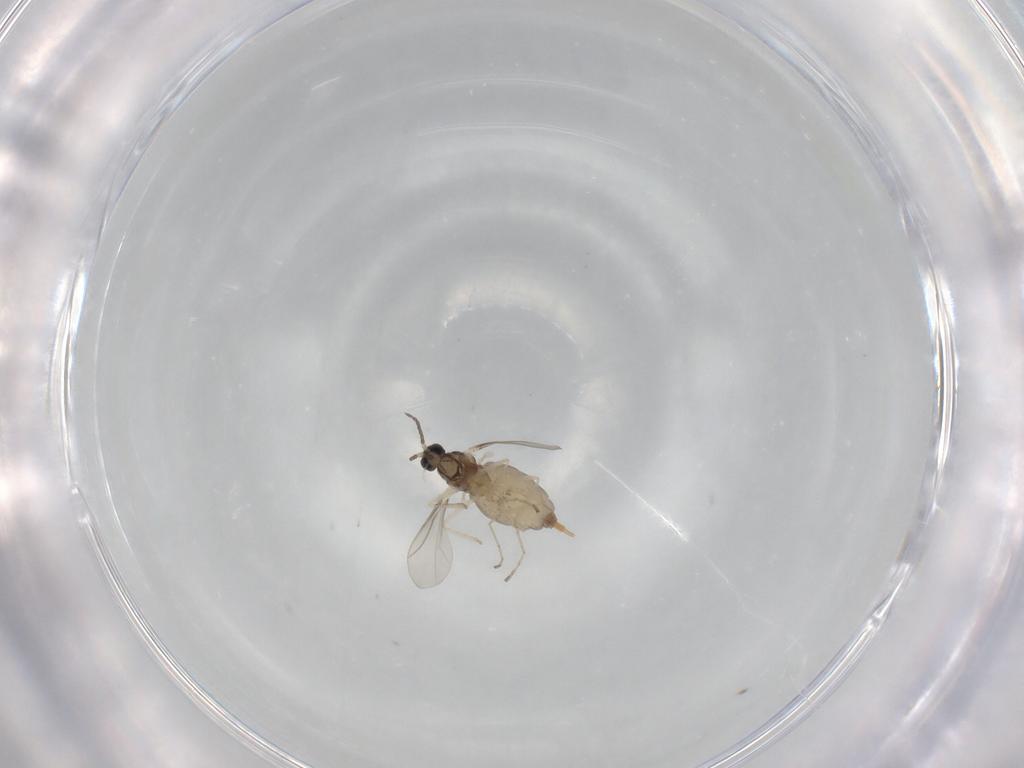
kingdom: Animalia
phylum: Arthropoda
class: Insecta
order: Diptera
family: Cecidomyiidae
